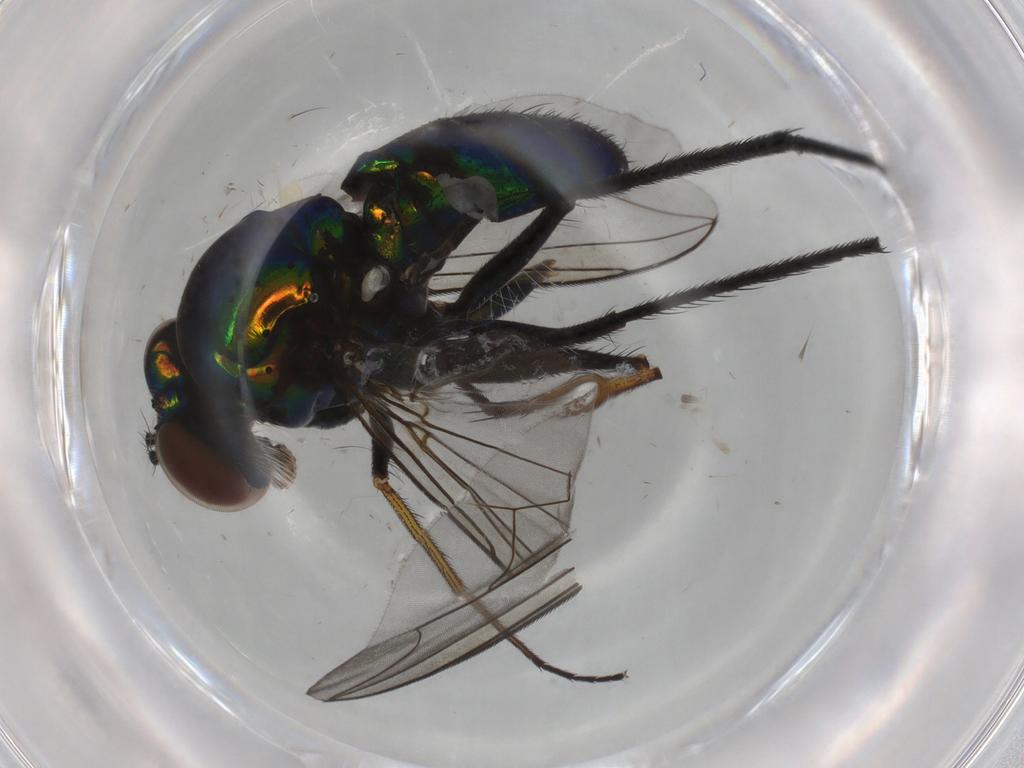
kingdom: Animalia
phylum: Arthropoda
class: Insecta
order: Diptera
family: Dolichopodidae
